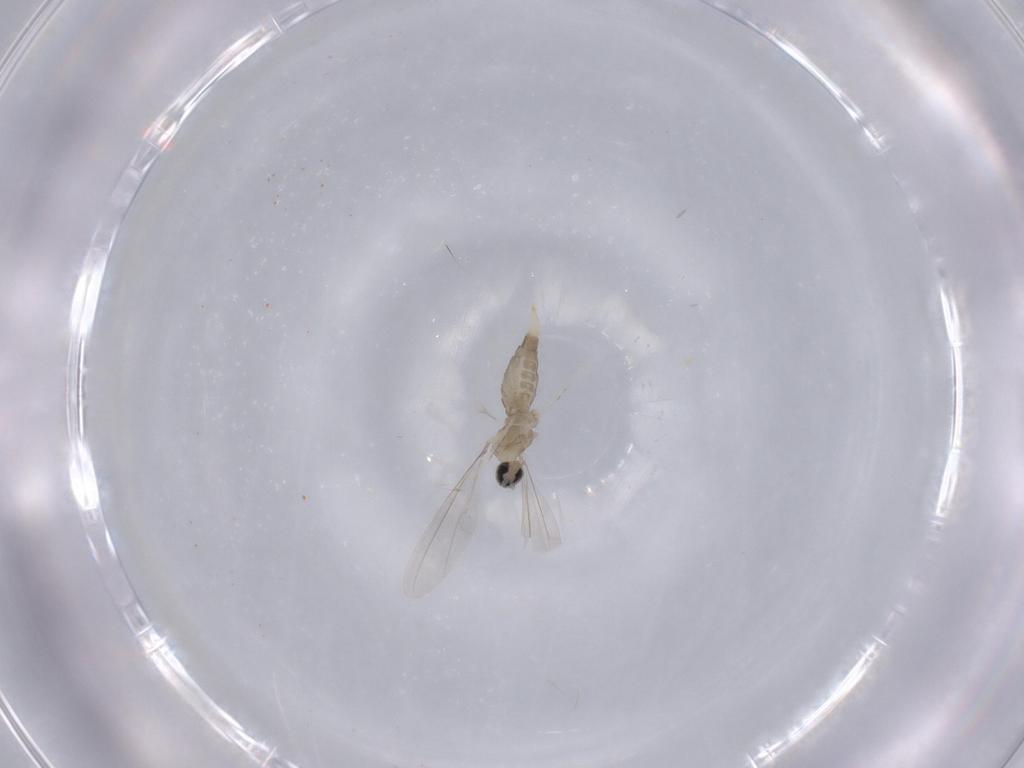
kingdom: Animalia
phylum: Arthropoda
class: Insecta
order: Diptera
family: Cecidomyiidae
